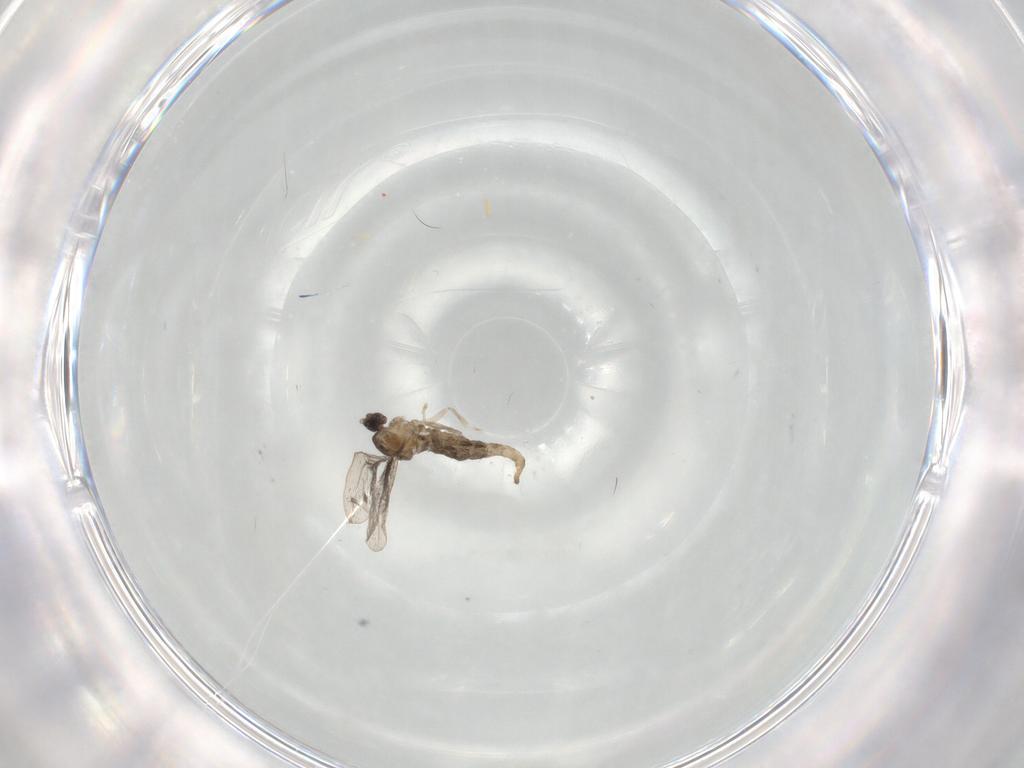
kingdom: Animalia
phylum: Arthropoda
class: Insecta
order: Diptera
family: Cecidomyiidae
